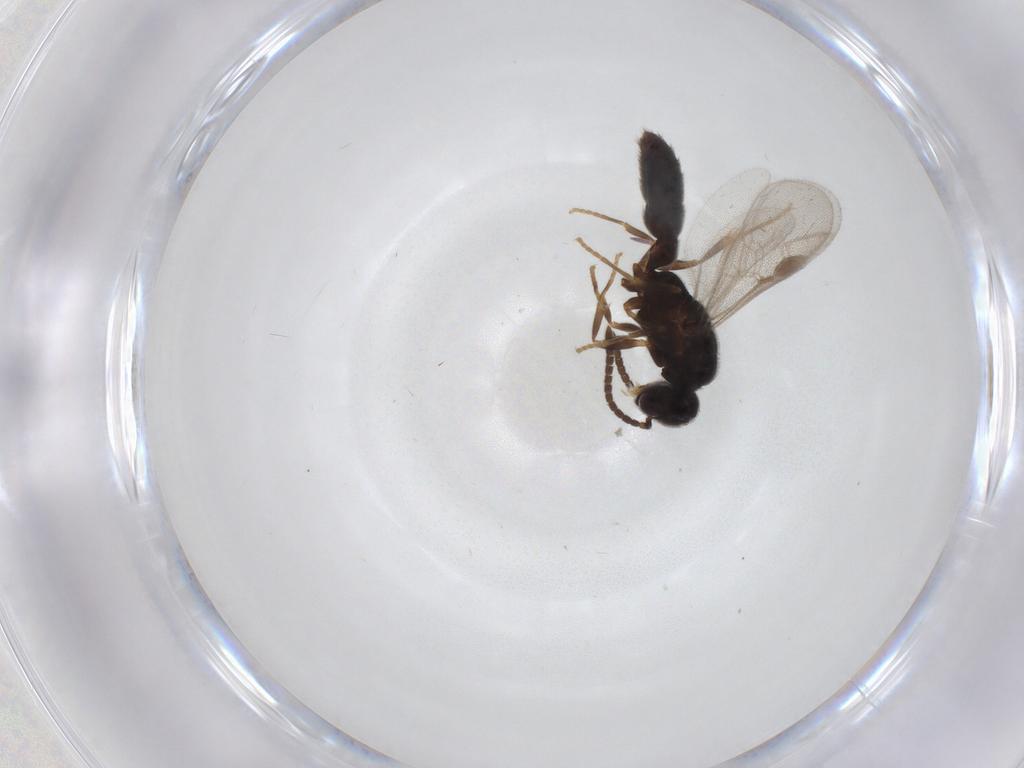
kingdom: Animalia
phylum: Arthropoda
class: Insecta
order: Hymenoptera
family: Formicidae
